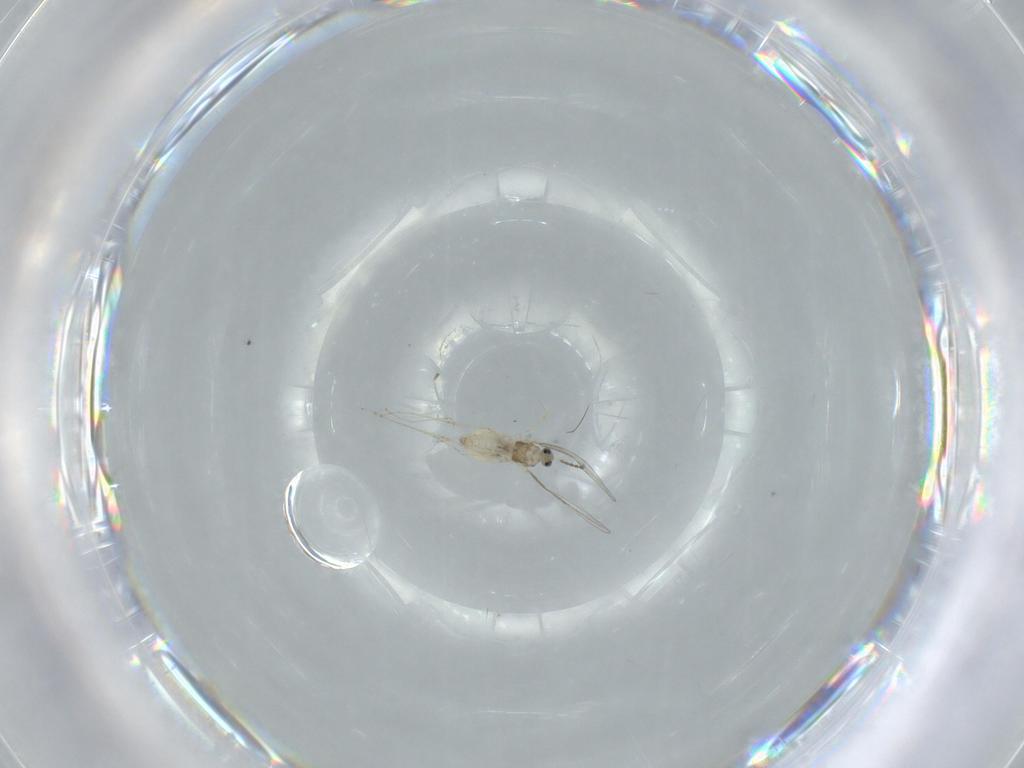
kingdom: Animalia
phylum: Arthropoda
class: Insecta
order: Diptera
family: Cecidomyiidae
